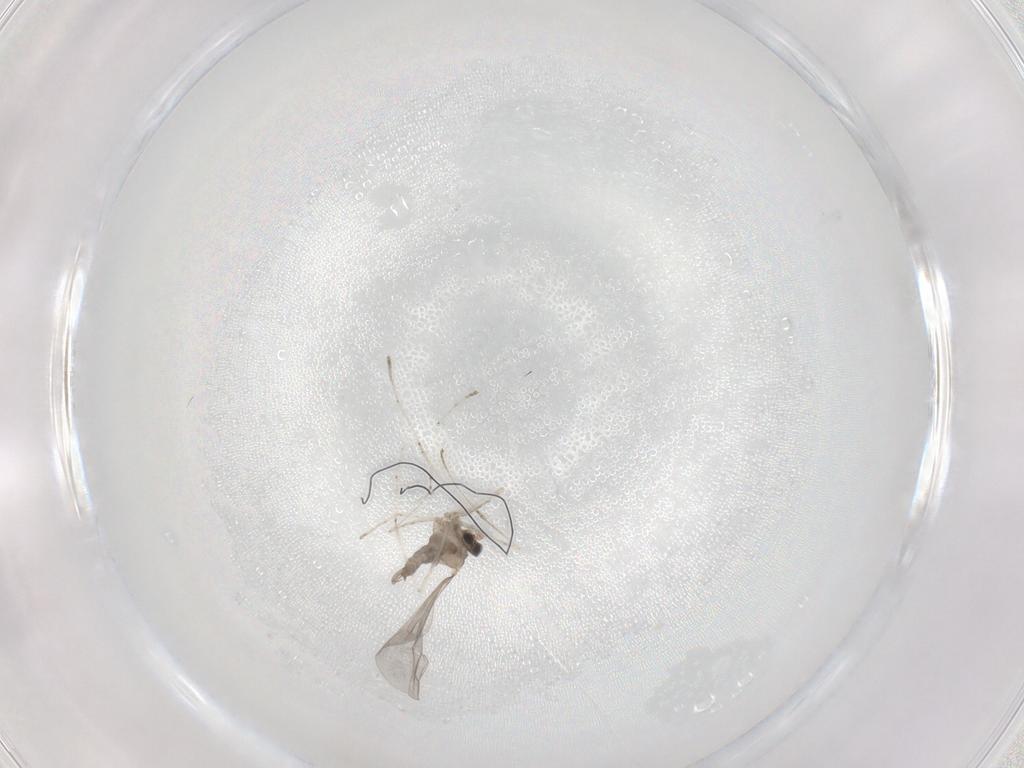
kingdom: Animalia
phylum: Arthropoda
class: Insecta
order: Diptera
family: Cecidomyiidae
